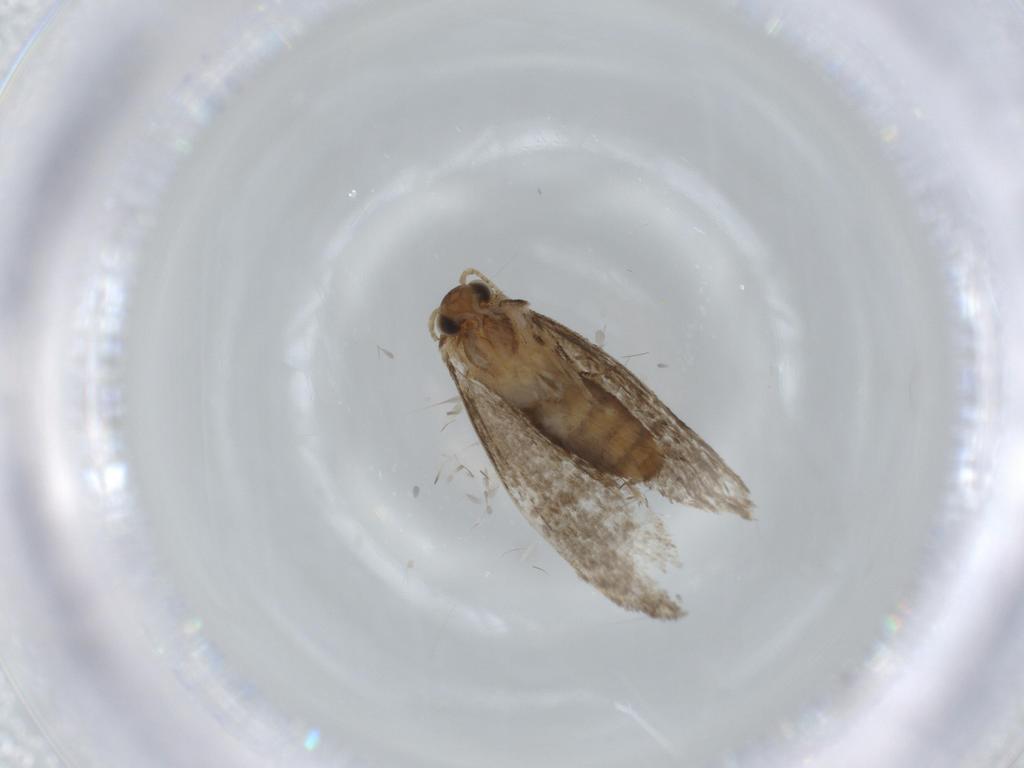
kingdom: Animalia
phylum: Arthropoda
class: Insecta
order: Lepidoptera
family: Tineidae
